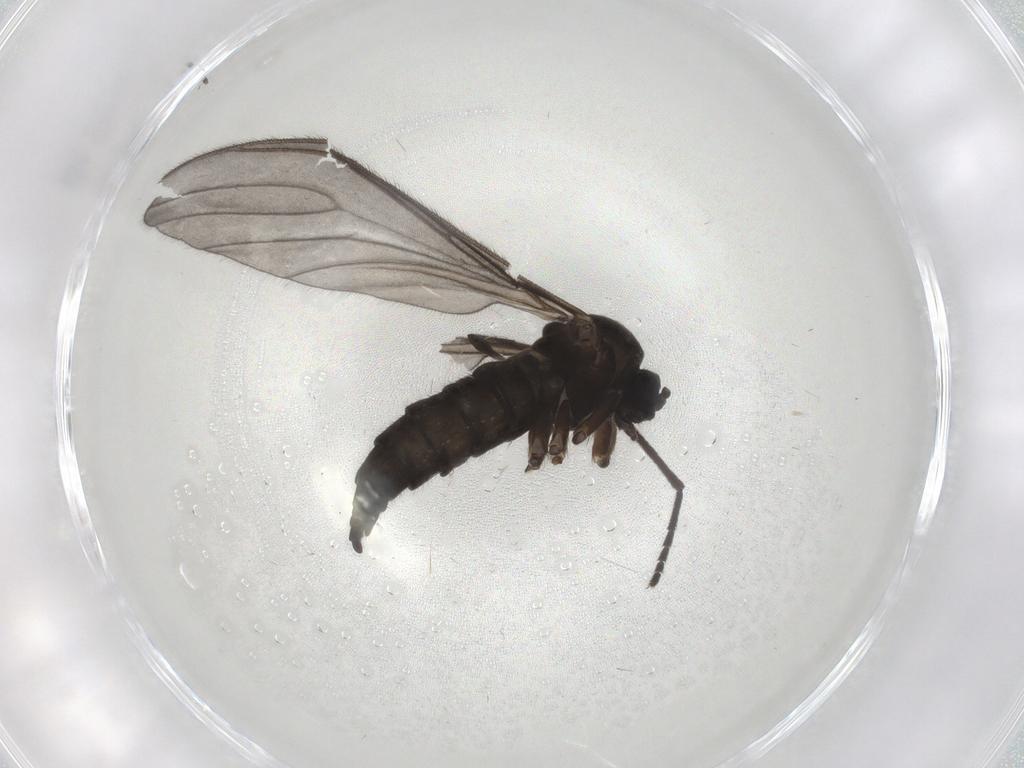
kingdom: Animalia
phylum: Arthropoda
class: Insecta
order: Diptera
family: Sciaridae
